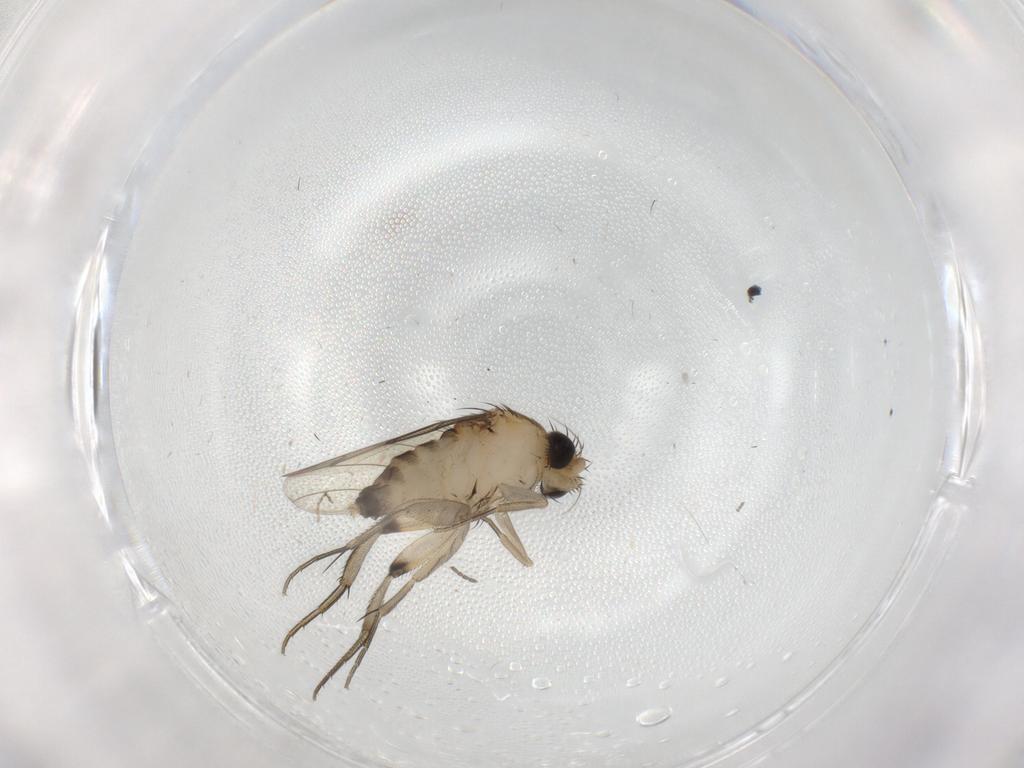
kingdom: Animalia
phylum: Arthropoda
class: Insecta
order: Diptera
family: Phoridae
